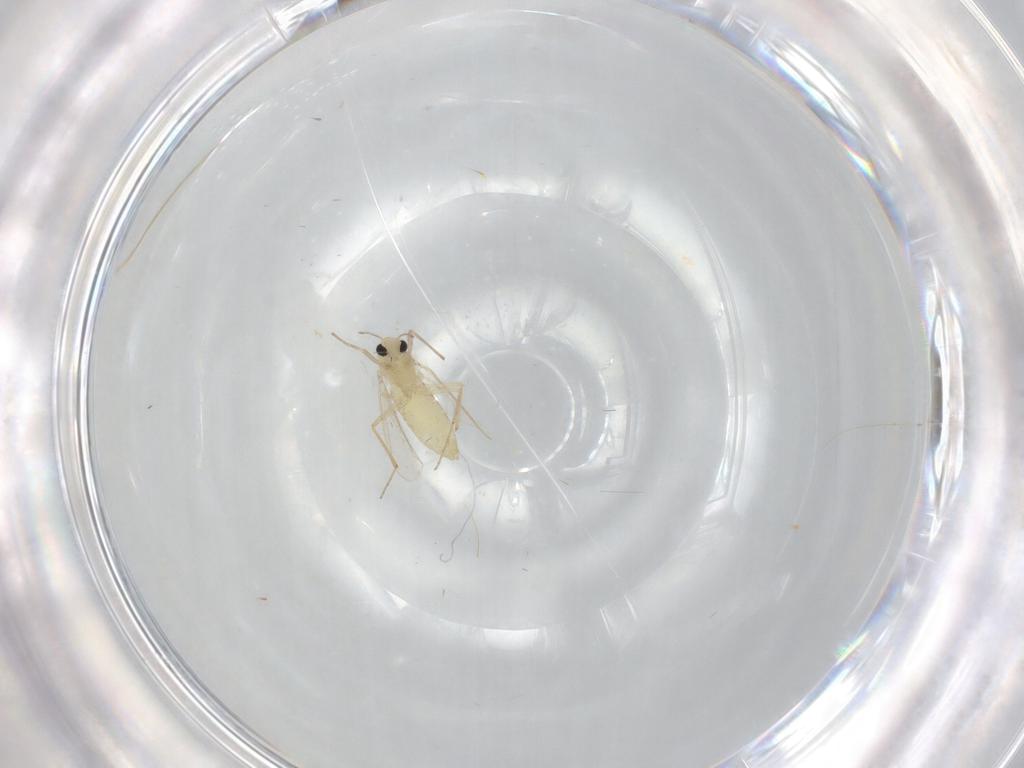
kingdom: Animalia
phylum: Arthropoda
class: Insecta
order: Diptera
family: Chironomidae
